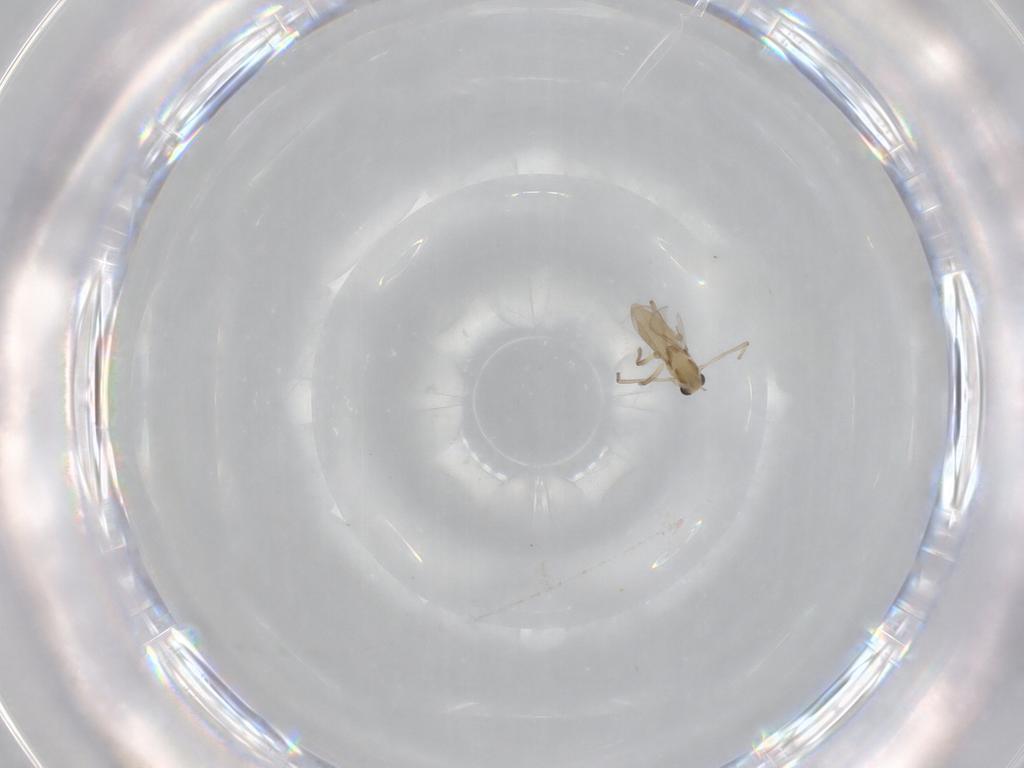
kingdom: Animalia
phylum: Arthropoda
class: Insecta
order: Diptera
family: Chironomidae
